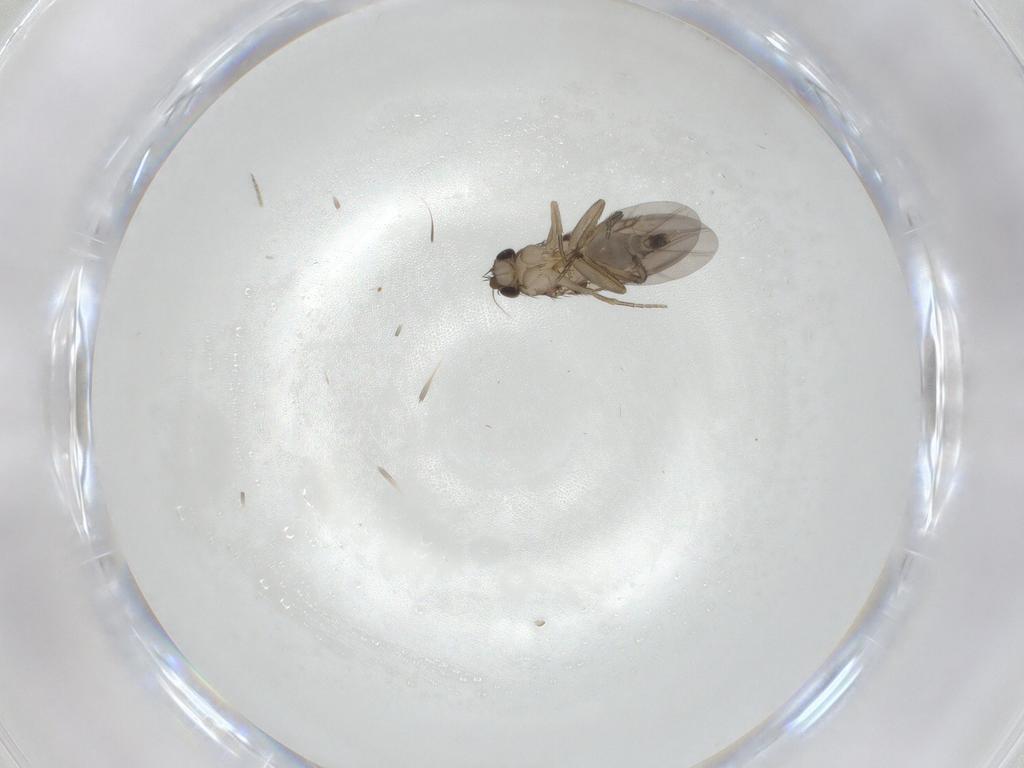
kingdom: Animalia
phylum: Arthropoda
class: Insecta
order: Diptera
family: Phoridae
